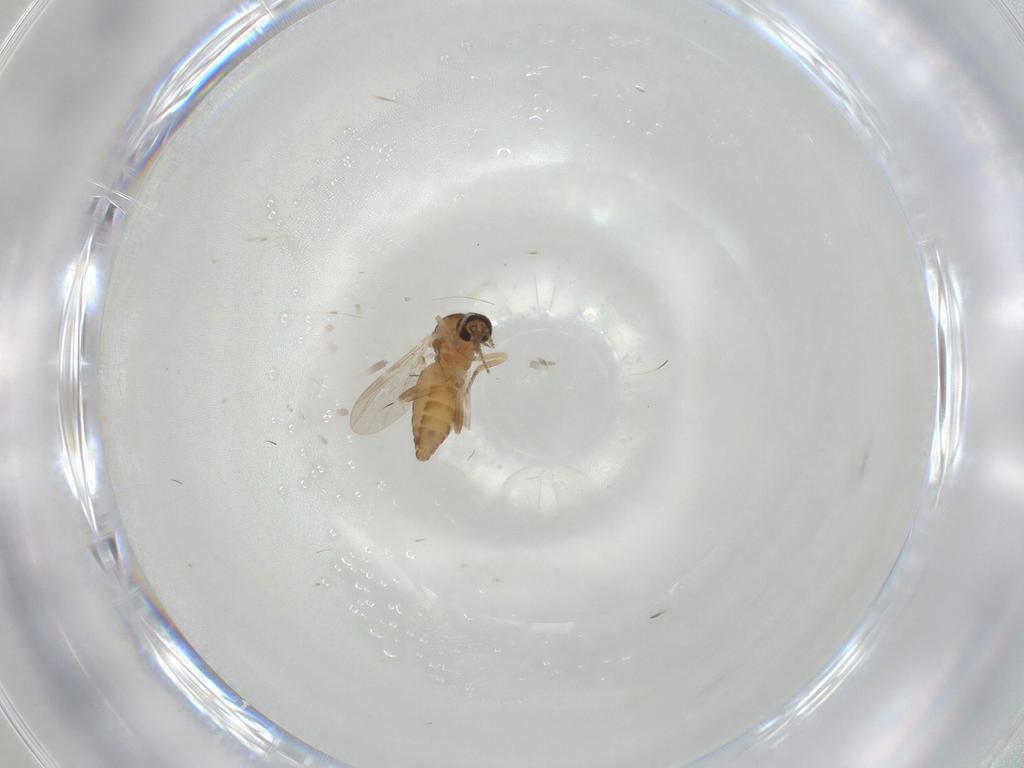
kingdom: Animalia
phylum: Arthropoda
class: Insecta
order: Diptera
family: Ceratopogonidae
